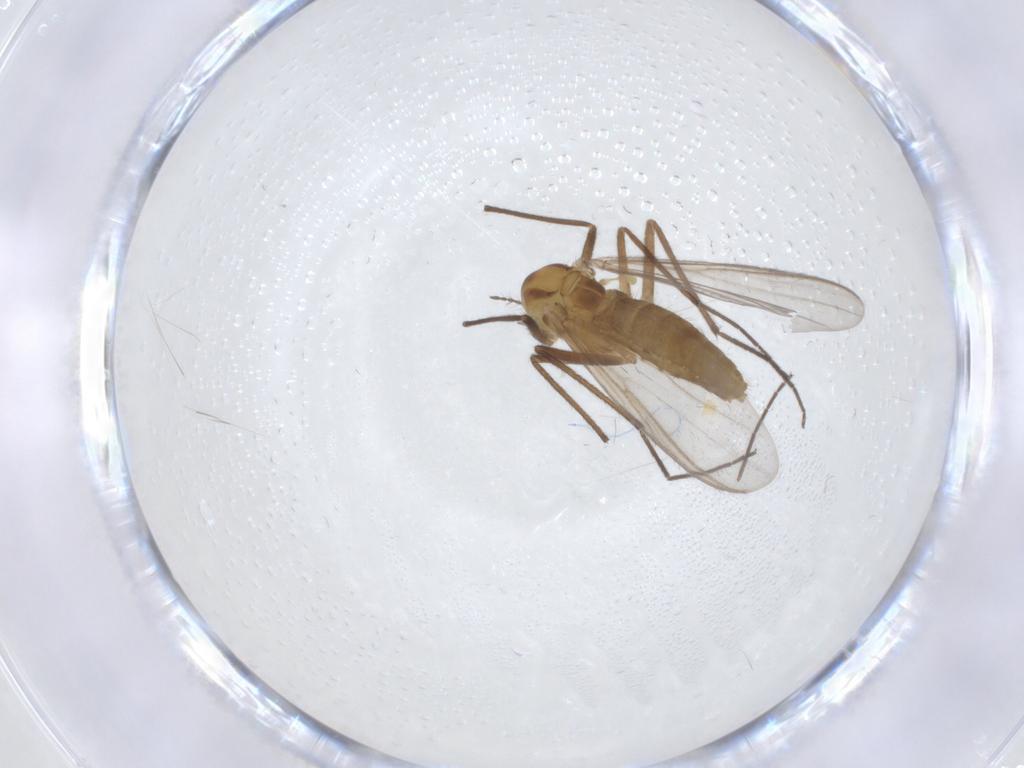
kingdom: Animalia
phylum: Arthropoda
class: Insecta
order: Diptera
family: Chironomidae
